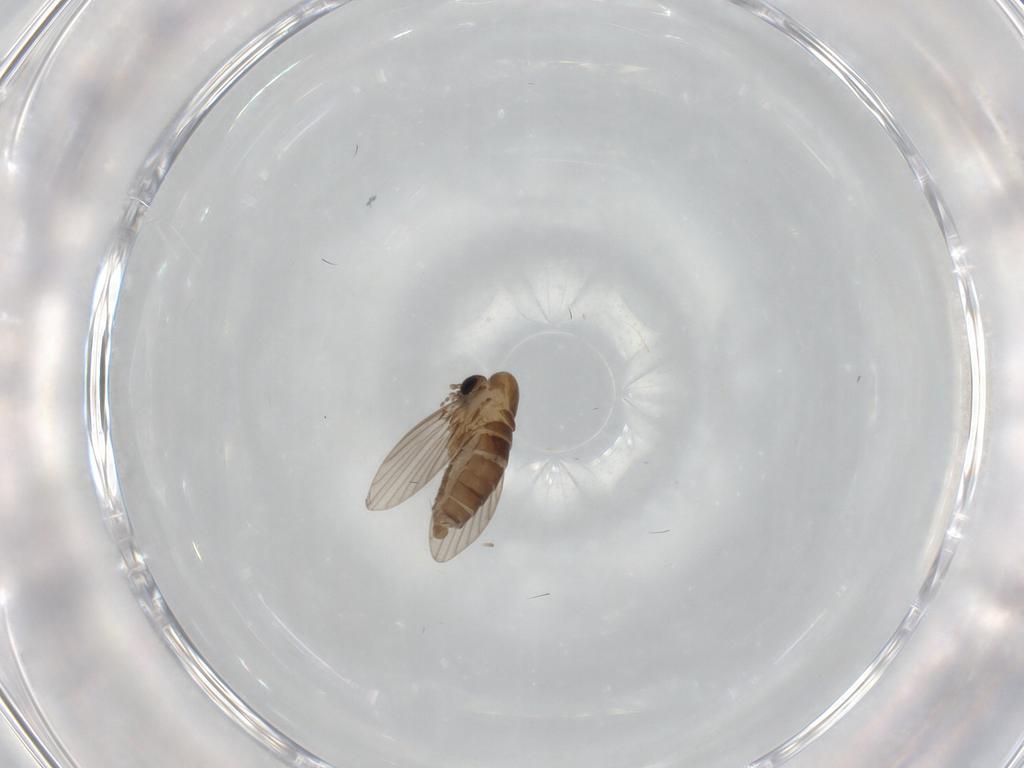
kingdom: Animalia
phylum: Arthropoda
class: Insecta
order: Diptera
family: Psychodidae
